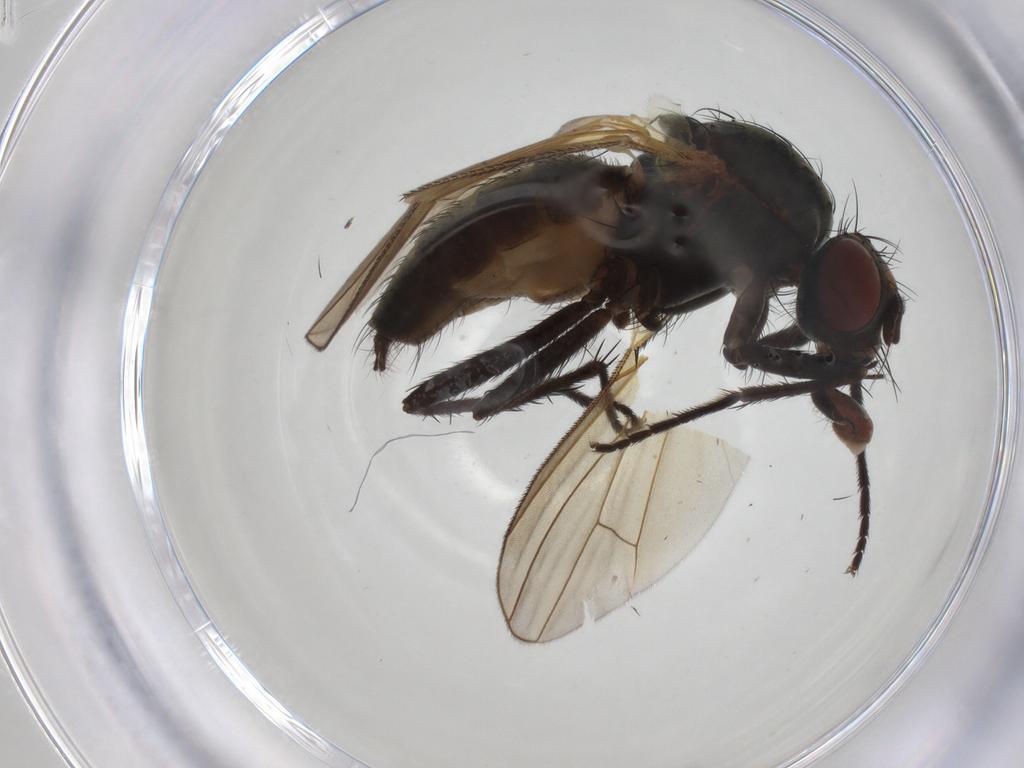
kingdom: Animalia
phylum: Arthropoda
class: Insecta
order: Diptera
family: Anthomyiidae
